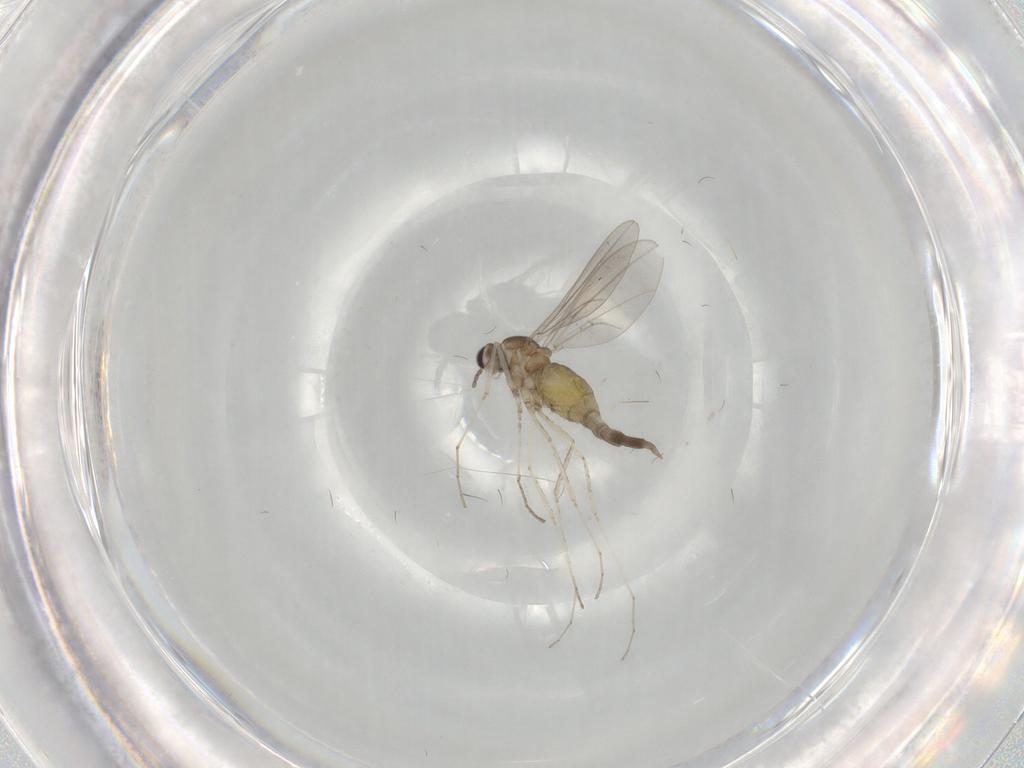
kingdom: Animalia
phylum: Arthropoda
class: Insecta
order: Diptera
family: Cecidomyiidae
